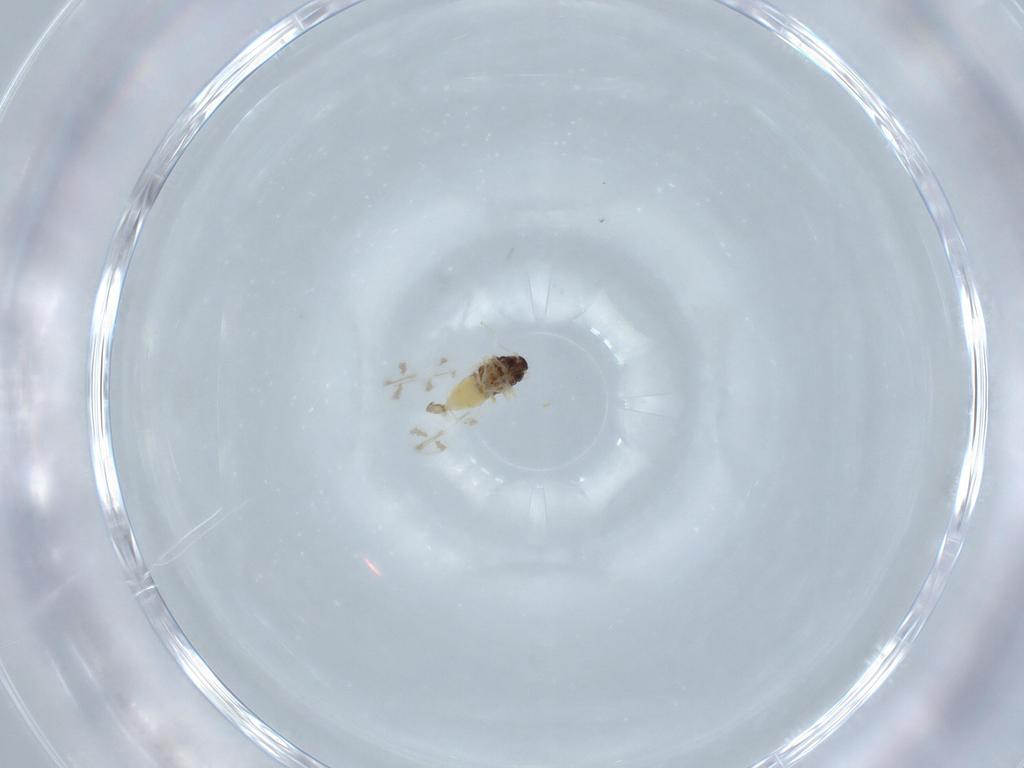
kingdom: Animalia
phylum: Arthropoda
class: Insecta
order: Hemiptera
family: Aleyrodidae
